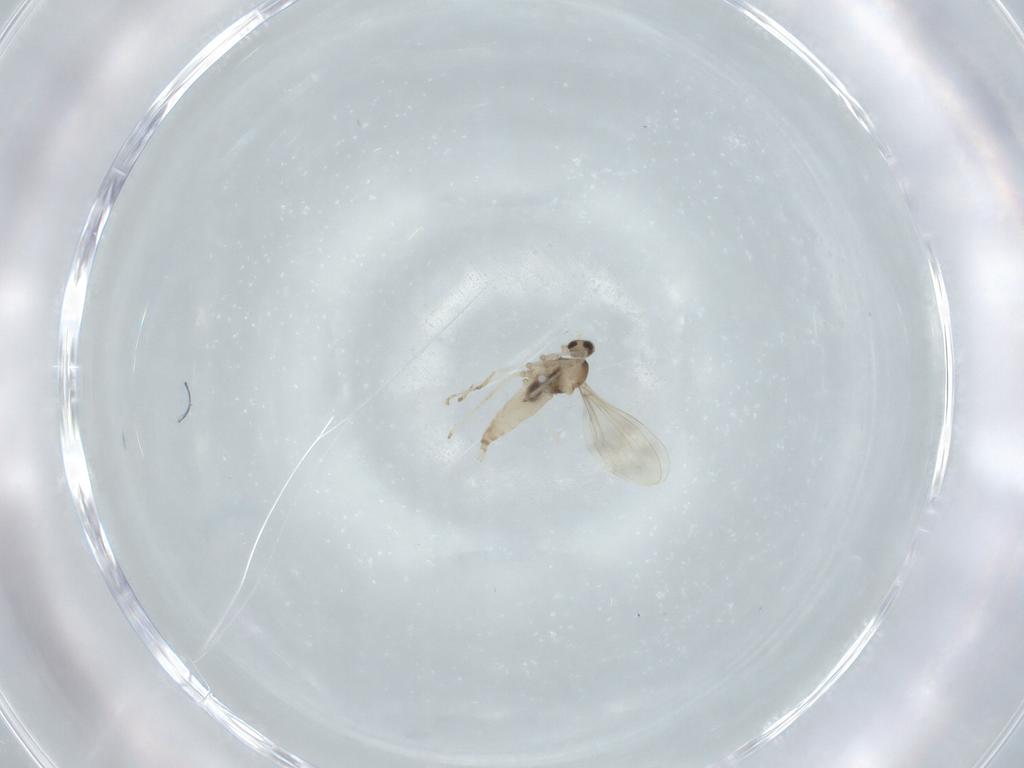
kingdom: Animalia
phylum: Arthropoda
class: Insecta
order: Diptera
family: Cecidomyiidae
